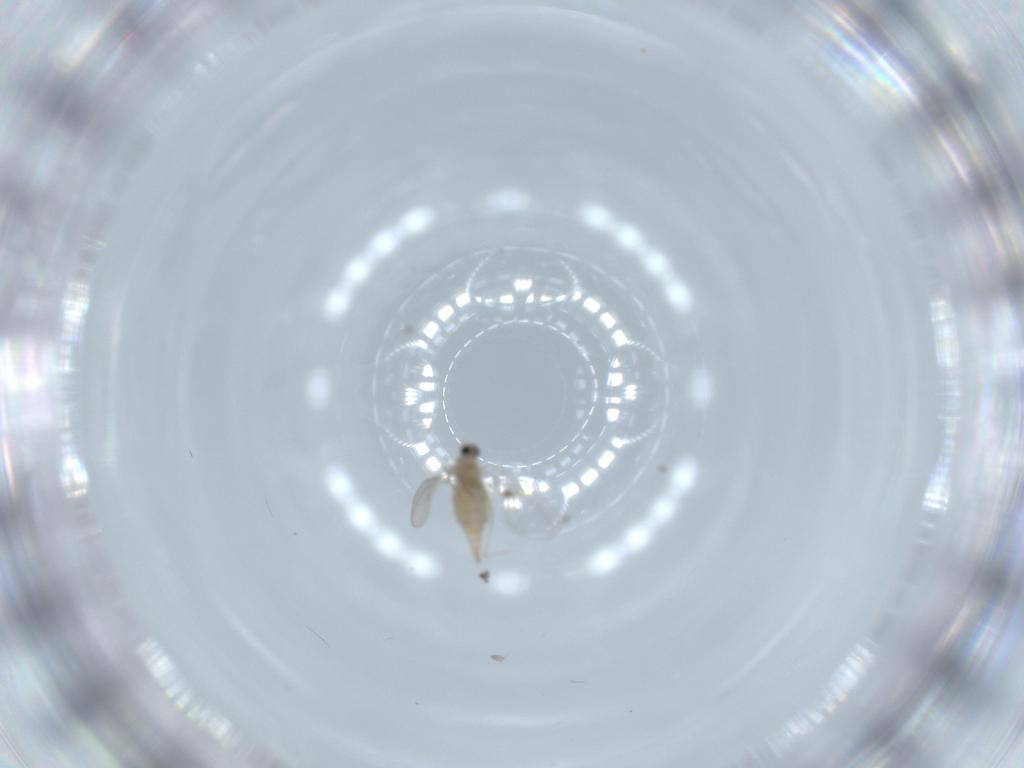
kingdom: Animalia
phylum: Arthropoda
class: Insecta
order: Diptera
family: Cecidomyiidae
